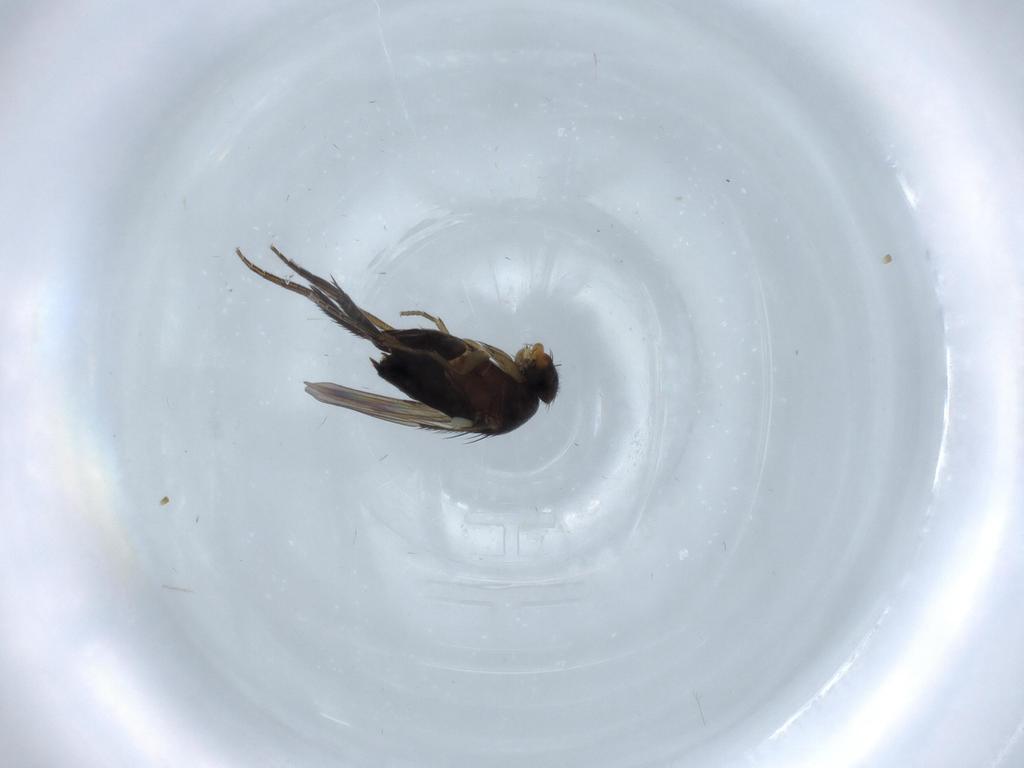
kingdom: Animalia
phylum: Arthropoda
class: Insecta
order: Diptera
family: Phoridae
